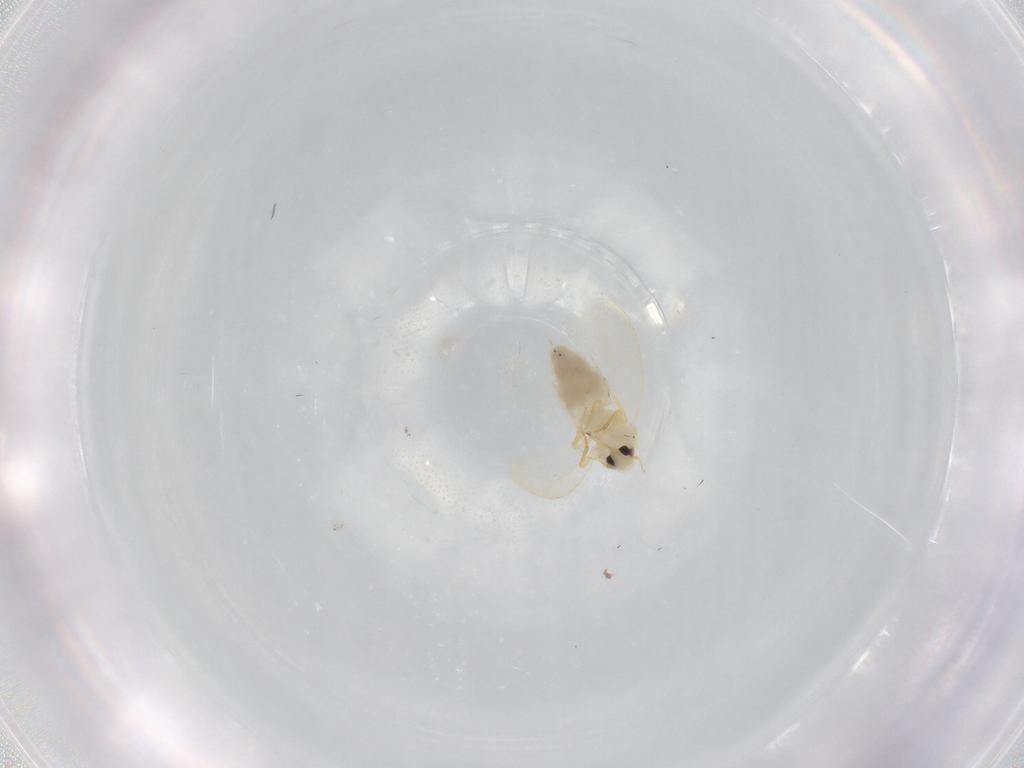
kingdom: Animalia
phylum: Arthropoda
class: Insecta
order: Hemiptera
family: Aleyrodidae
